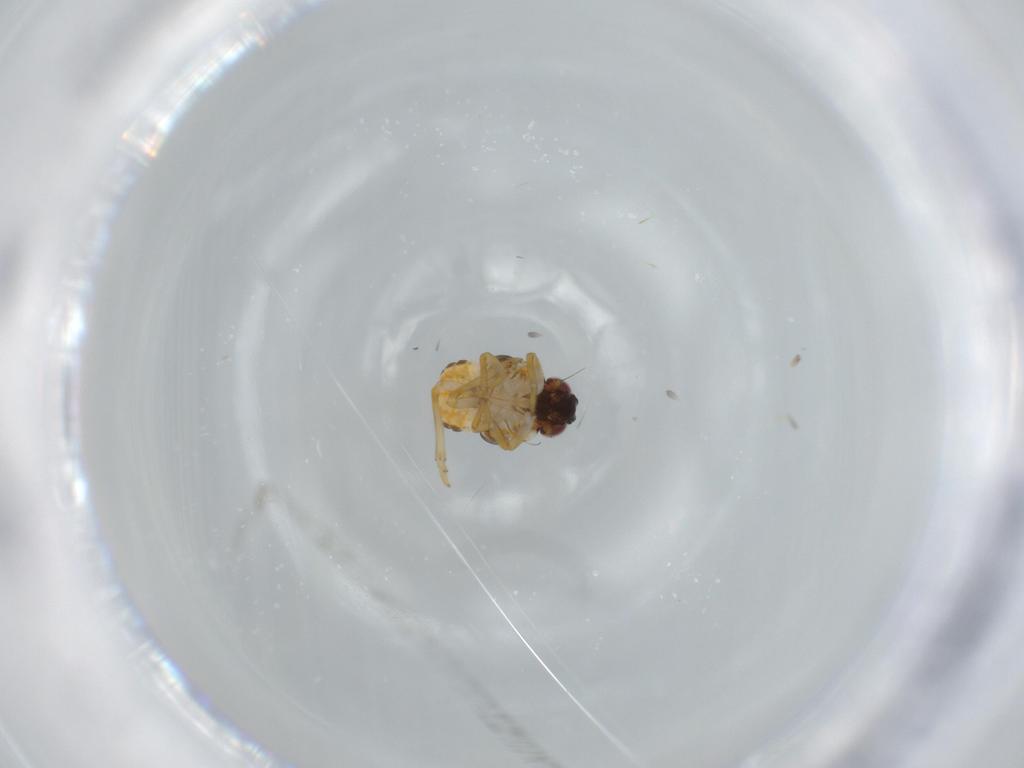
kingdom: Animalia
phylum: Arthropoda
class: Insecta
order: Hemiptera
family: Issidae
